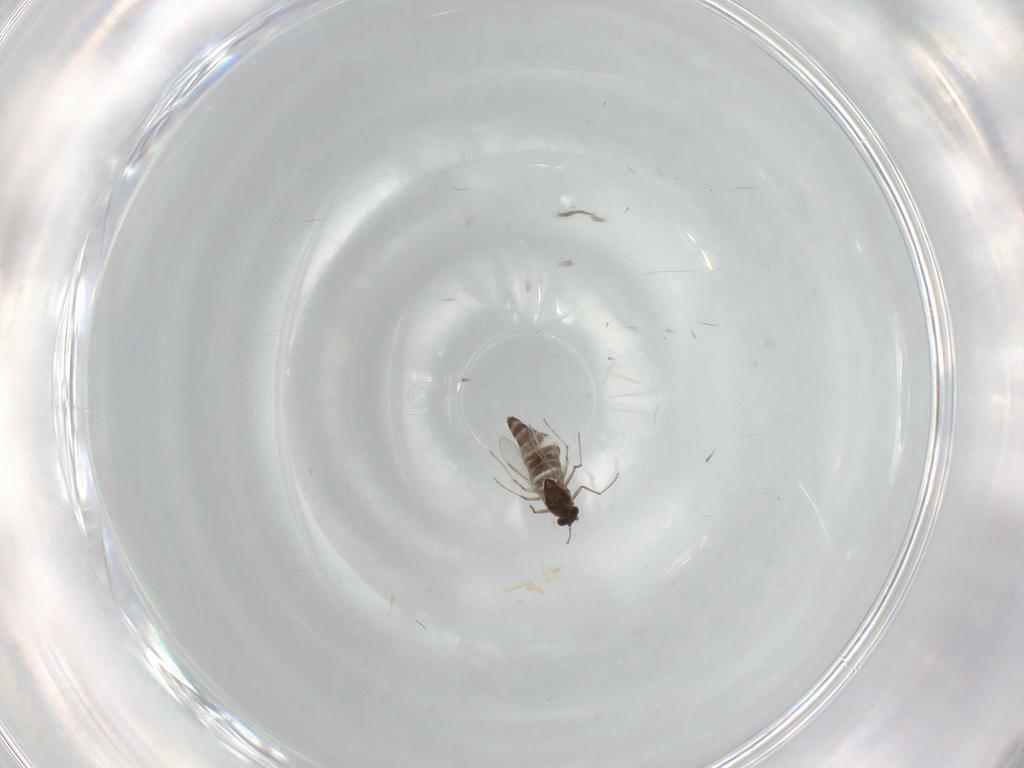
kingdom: Animalia
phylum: Arthropoda
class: Insecta
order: Diptera
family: Chironomidae
